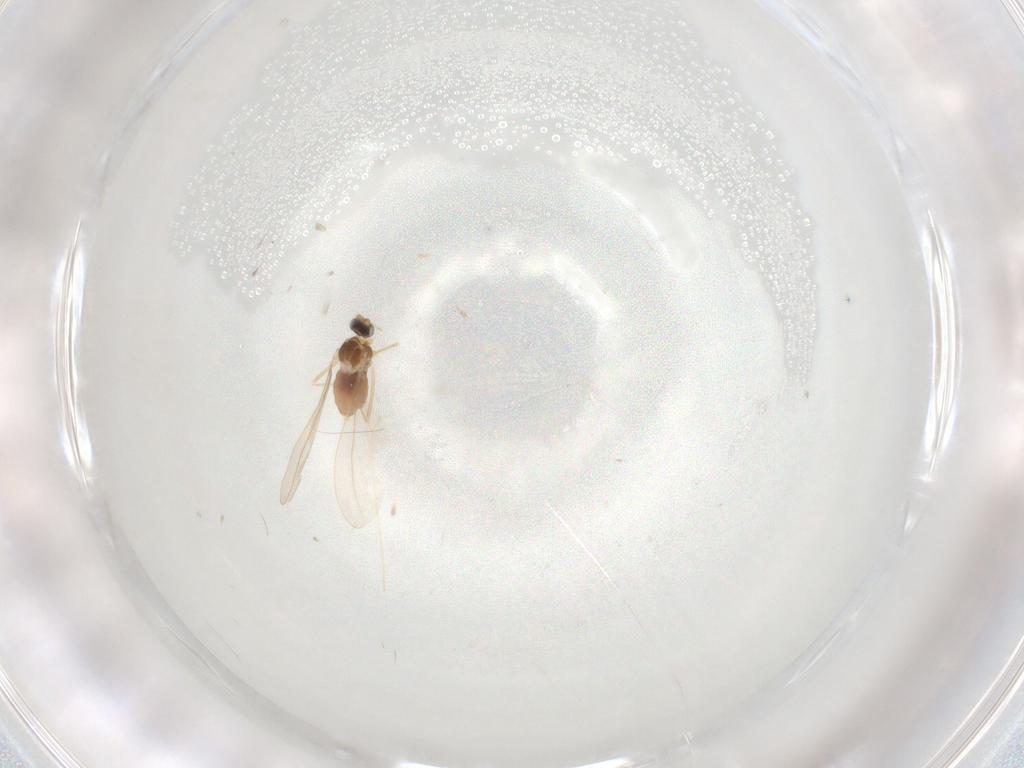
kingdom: Animalia
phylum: Arthropoda
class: Insecta
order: Diptera
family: Cecidomyiidae
